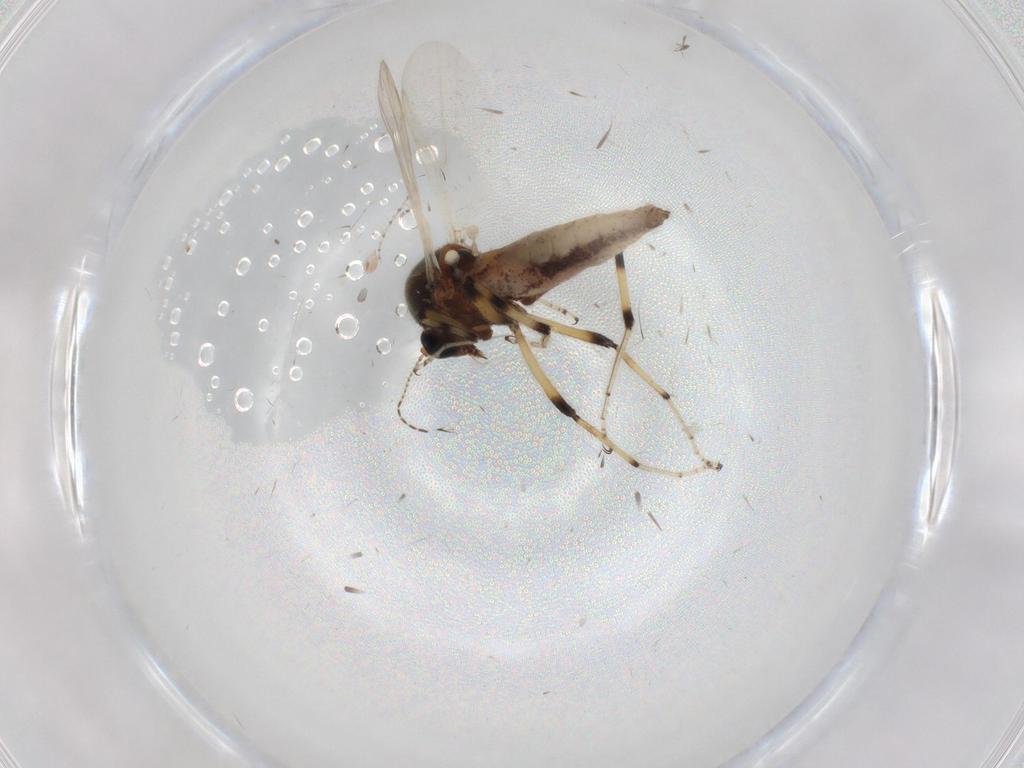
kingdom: Animalia
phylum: Arthropoda
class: Insecta
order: Diptera
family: Cecidomyiidae
